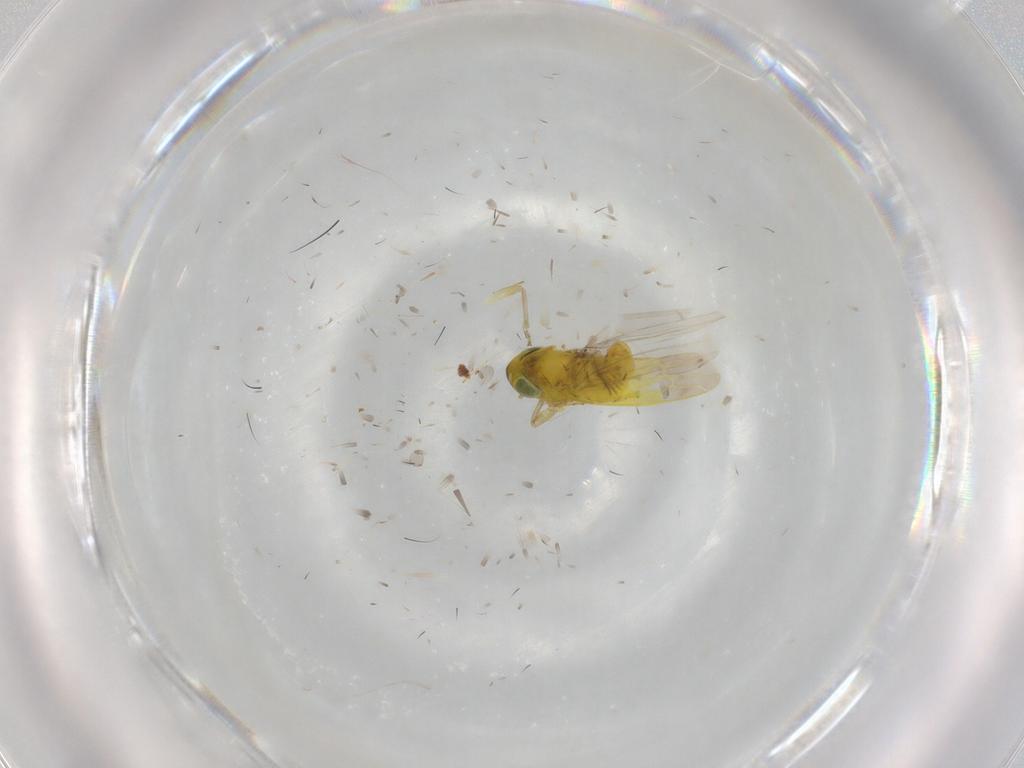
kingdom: Animalia
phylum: Arthropoda
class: Insecta
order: Hemiptera
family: Cicadellidae
